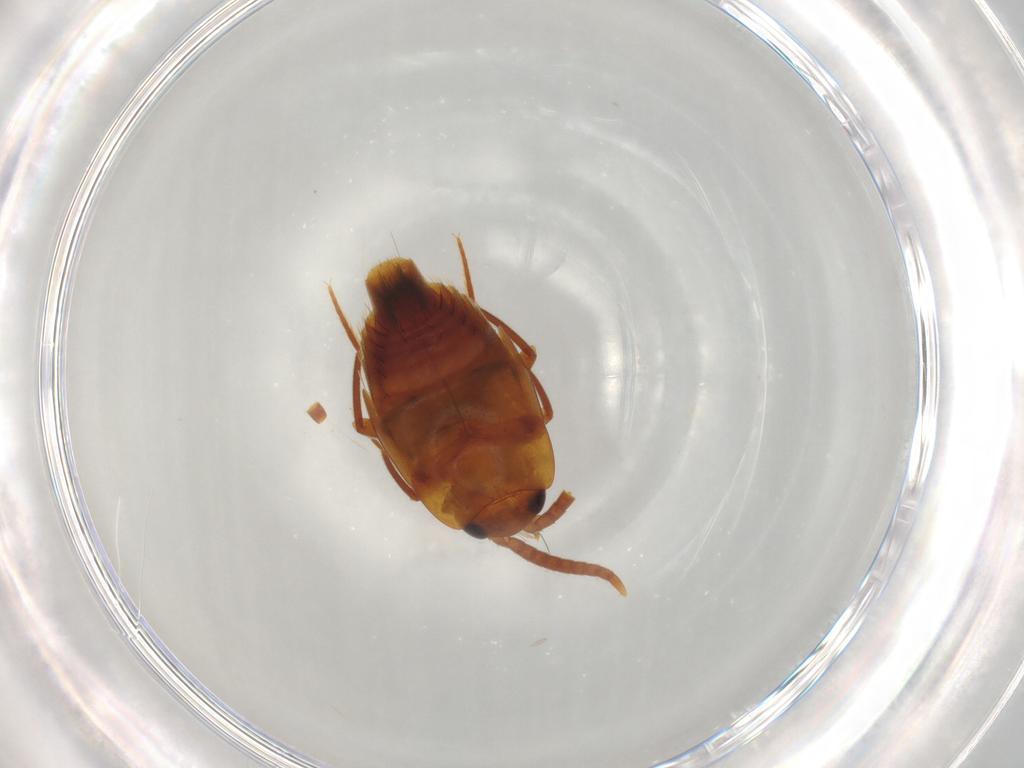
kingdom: Animalia
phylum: Arthropoda
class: Insecta
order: Coleoptera
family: Staphylinidae
